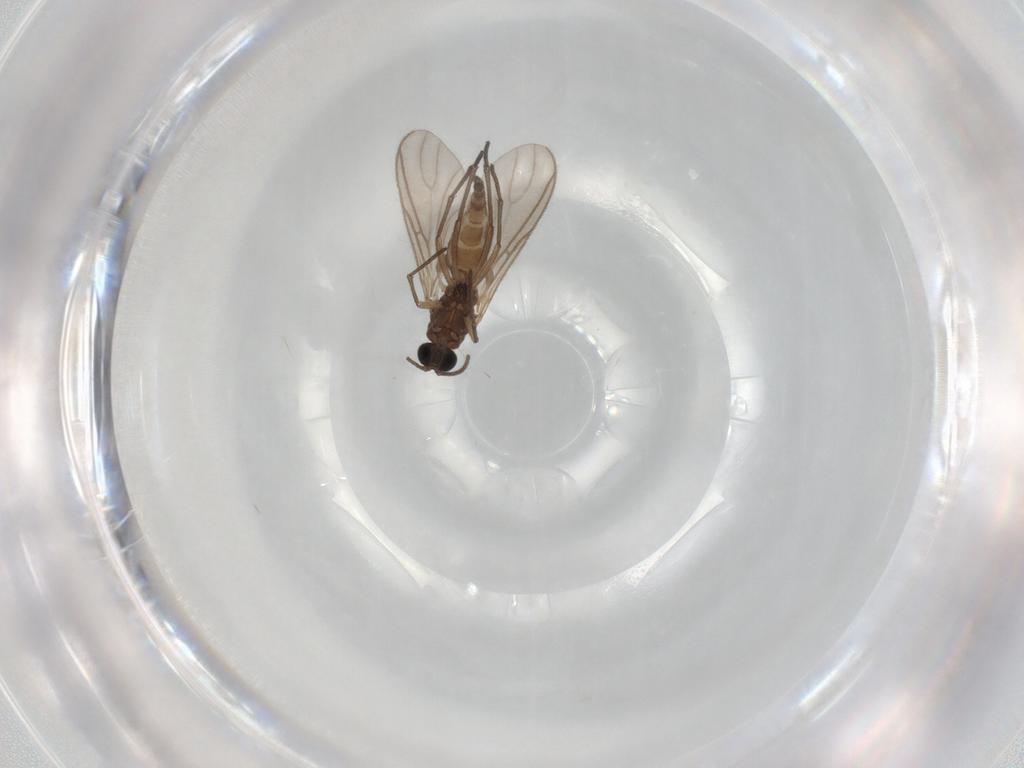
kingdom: Animalia
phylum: Arthropoda
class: Insecta
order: Diptera
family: Sciaridae
